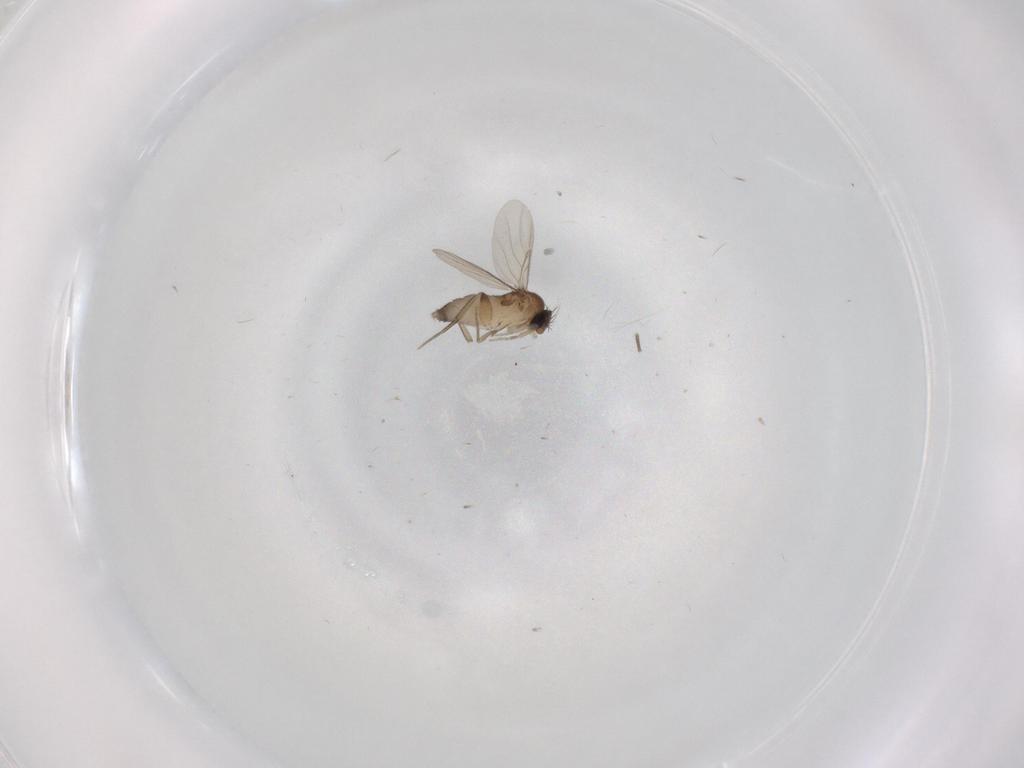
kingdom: Animalia
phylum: Arthropoda
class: Insecta
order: Diptera
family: Phoridae
